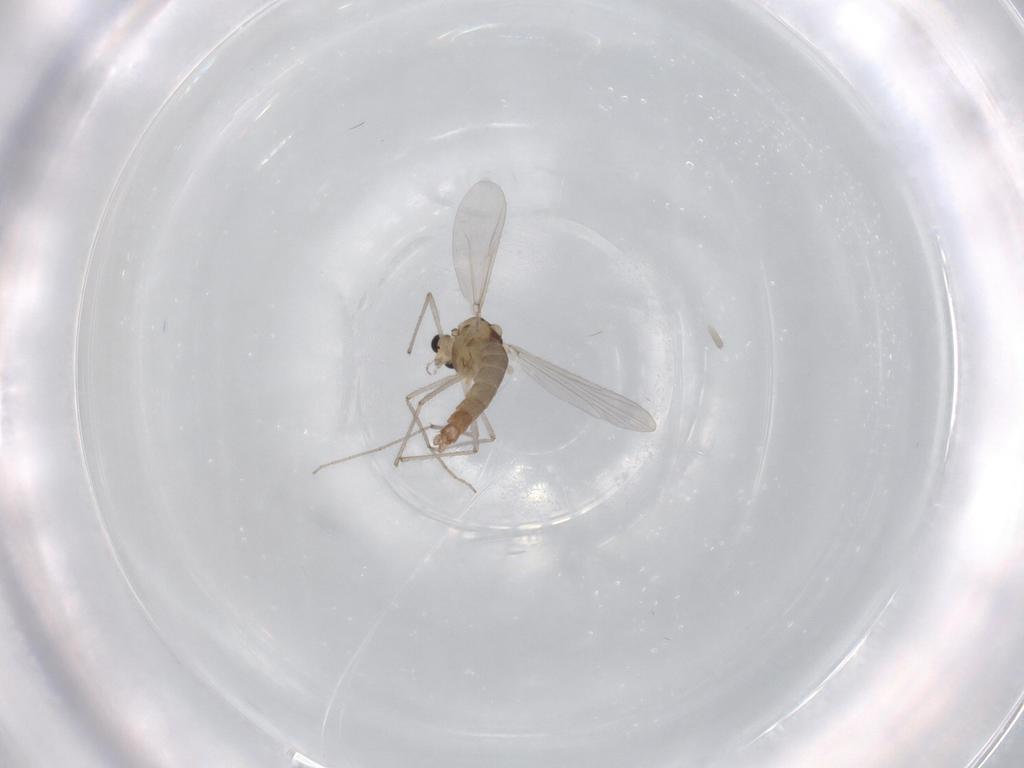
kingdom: Animalia
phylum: Arthropoda
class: Insecta
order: Diptera
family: Chironomidae
